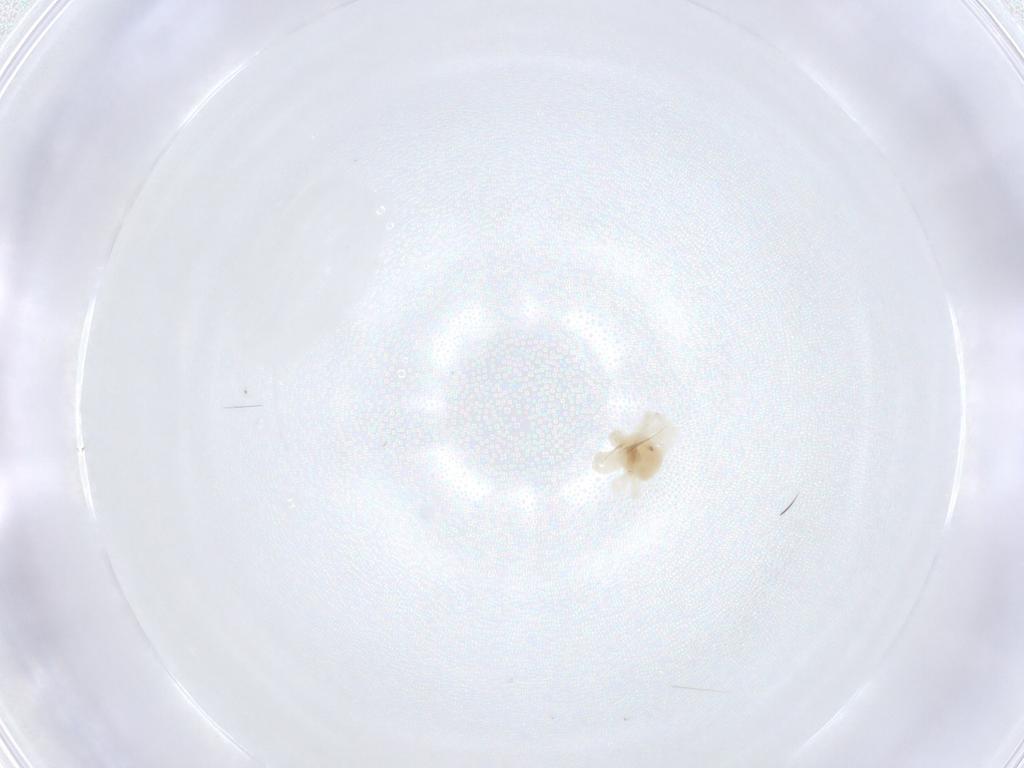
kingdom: Animalia
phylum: Arthropoda
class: Arachnida
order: Trombidiformes
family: Anystidae
